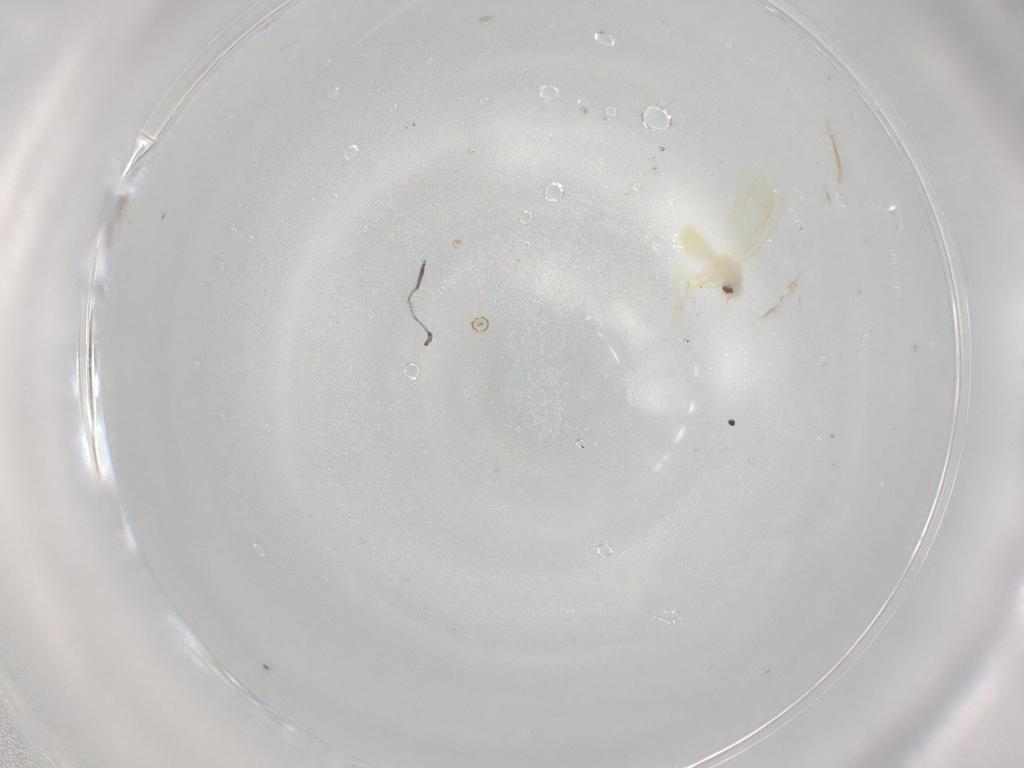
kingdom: Animalia
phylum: Arthropoda
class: Insecta
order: Hemiptera
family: Aleyrodidae
